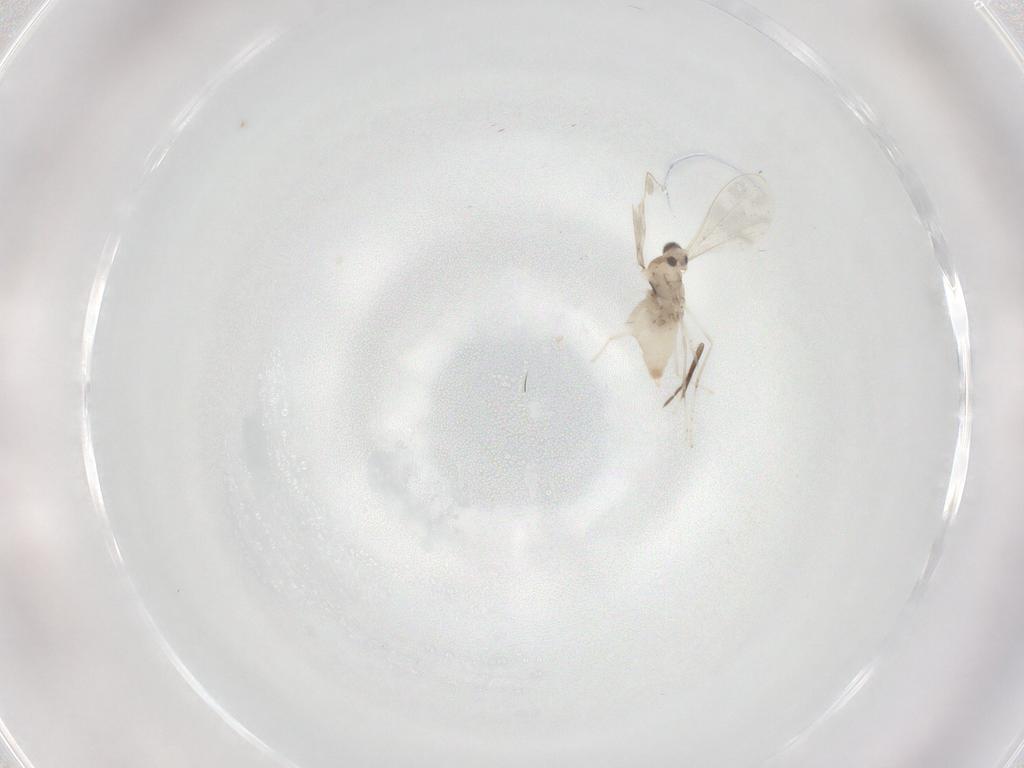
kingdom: Animalia
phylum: Arthropoda
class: Insecta
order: Diptera
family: Cecidomyiidae
